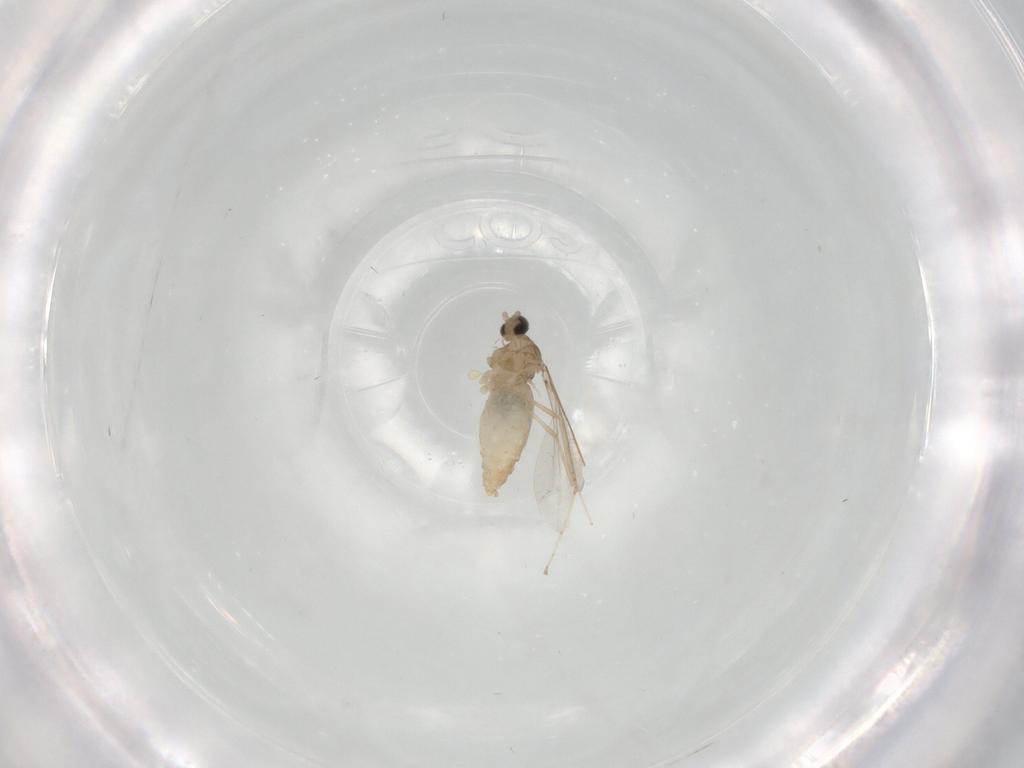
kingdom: Animalia
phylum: Arthropoda
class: Insecta
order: Diptera
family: Cecidomyiidae
